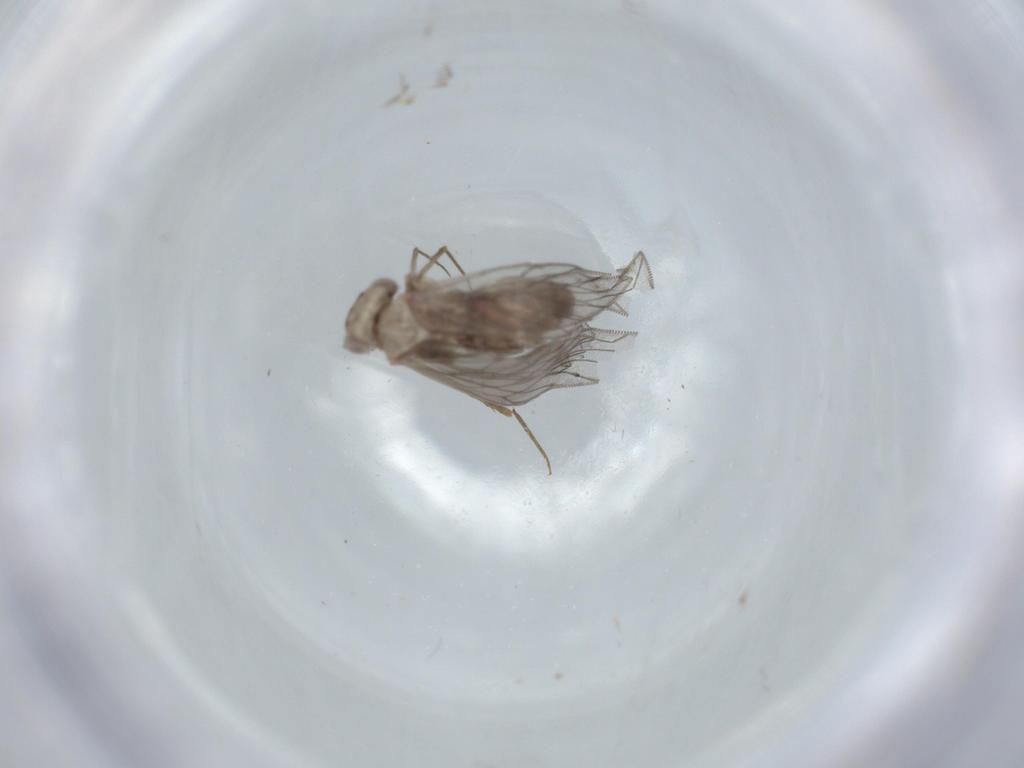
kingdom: Animalia
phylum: Arthropoda
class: Insecta
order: Psocodea
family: Lepidopsocidae
